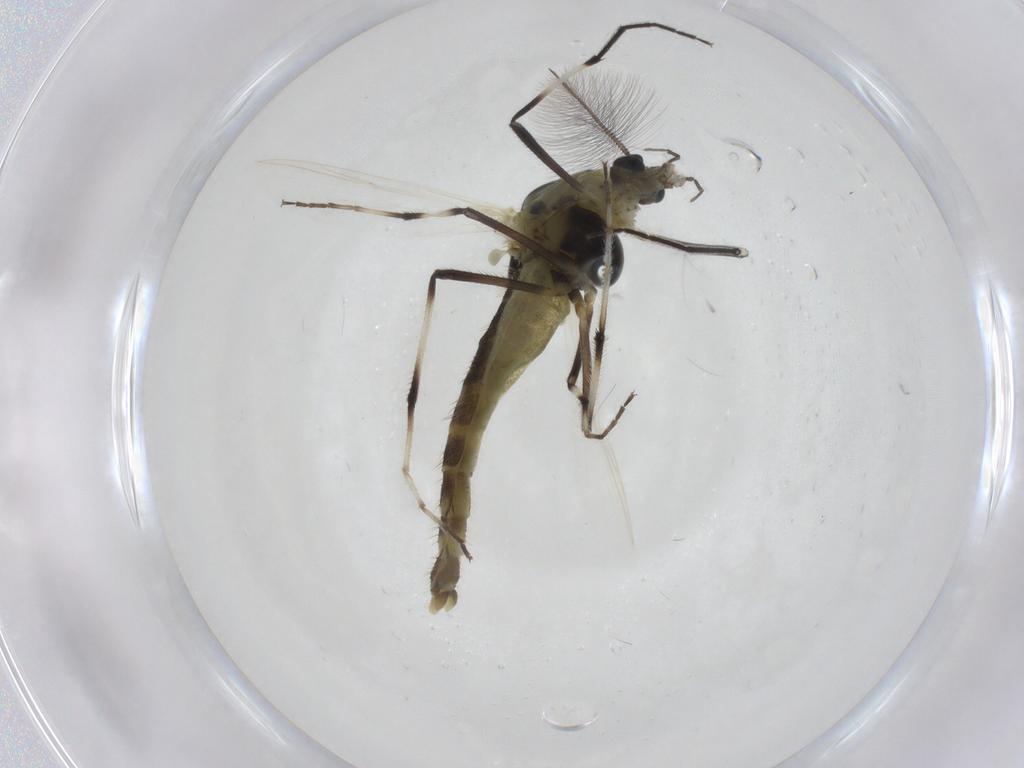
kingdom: Animalia
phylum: Arthropoda
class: Insecta
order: Diptera
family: Chironomidae
